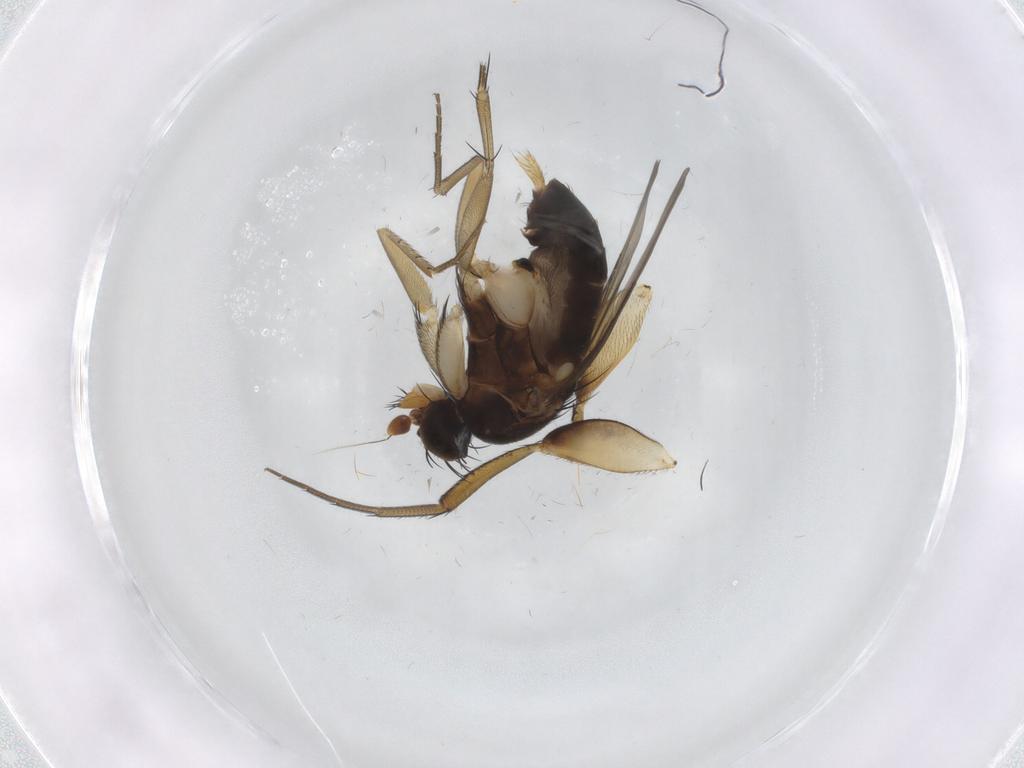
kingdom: Animalia
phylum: Arthropoda
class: Insecta
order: Diptera
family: Phoridae
